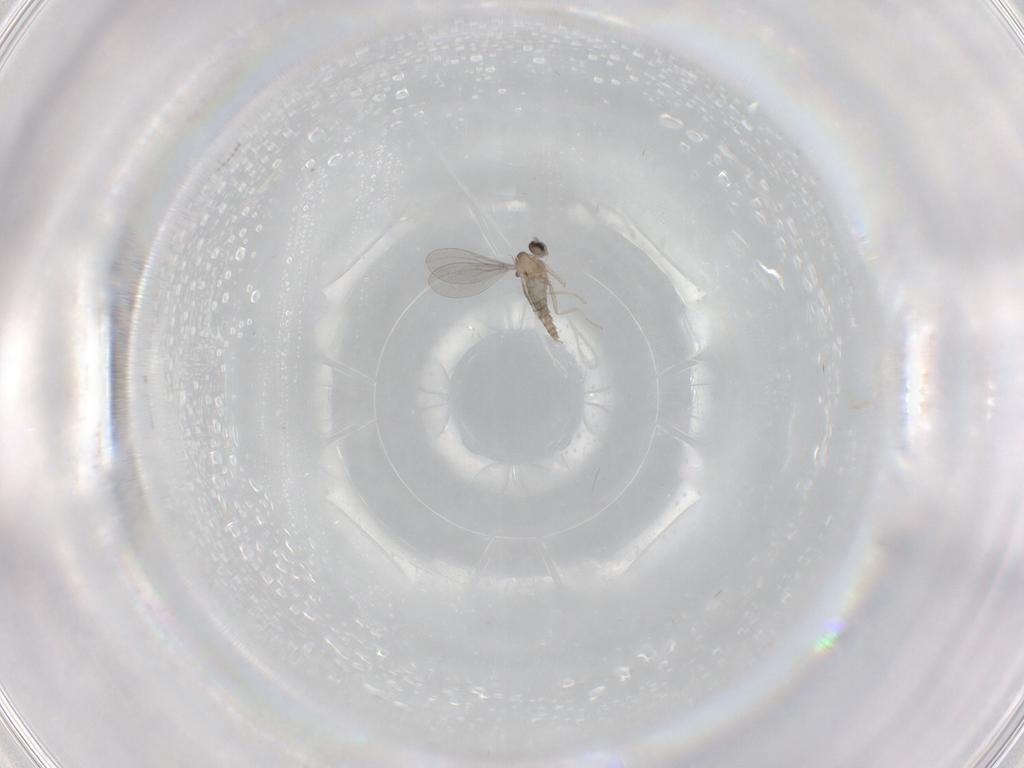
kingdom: Animalia
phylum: Arthropoda
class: Insecta
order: Diptera
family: Cecidomyiidae
